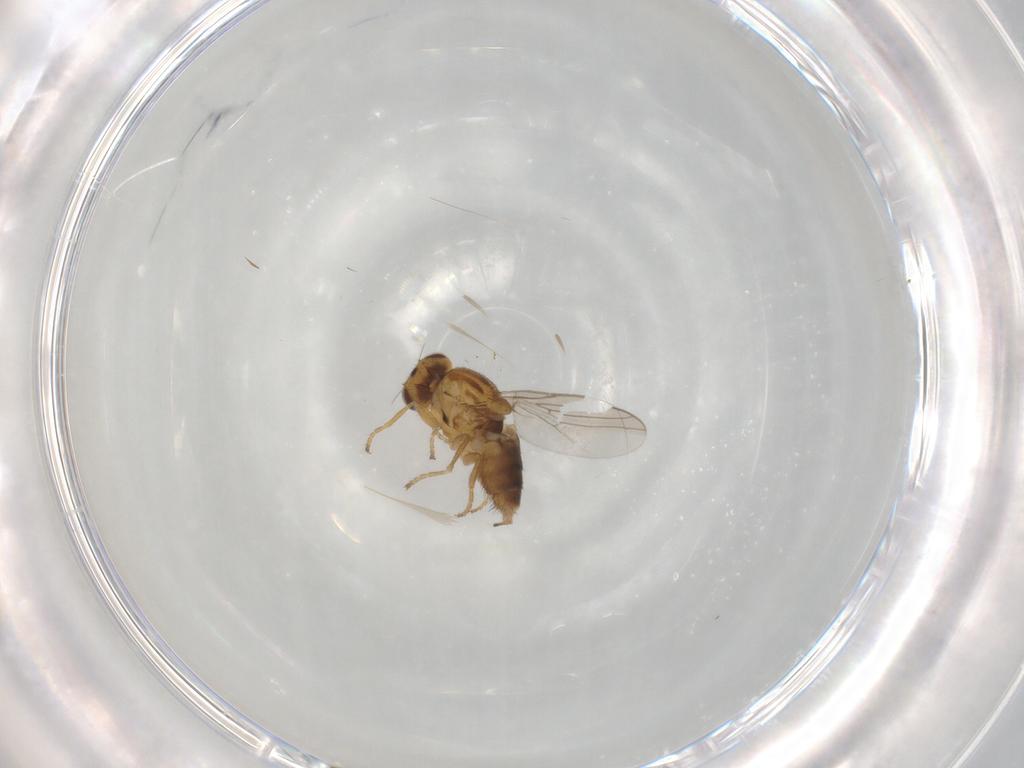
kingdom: Animalia
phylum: Arthropoda
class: Insecta
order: Diptera
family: Chloropidae
